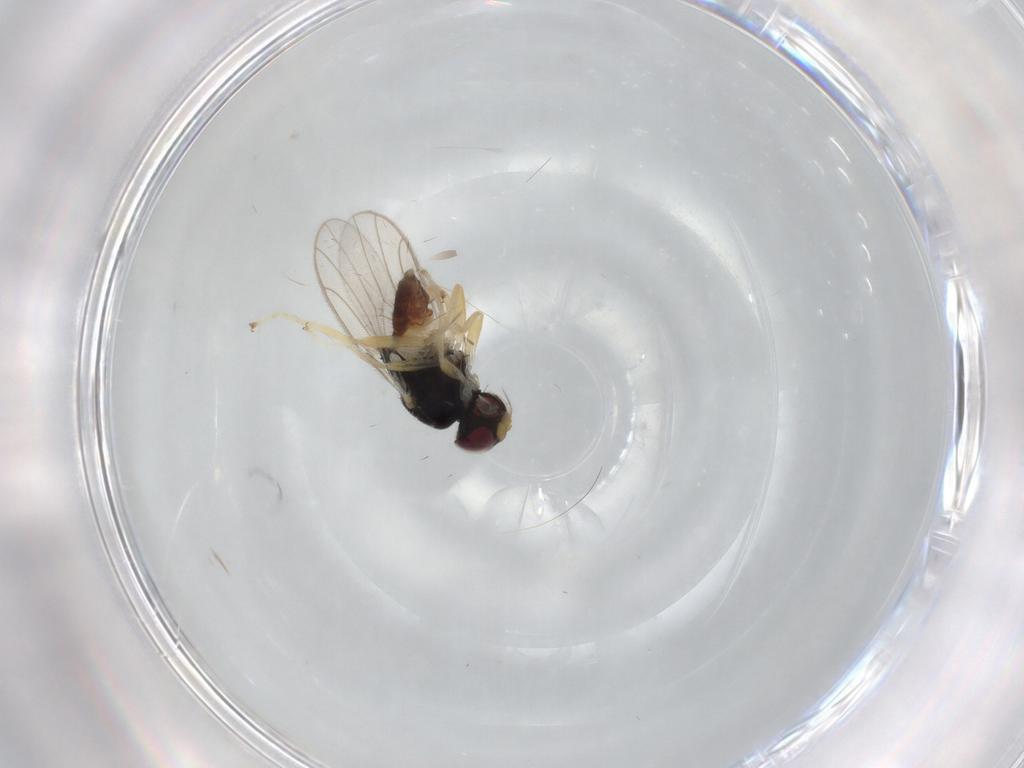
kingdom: Animalia
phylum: Arthropoda
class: Insecta
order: Diptera
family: Chloropidae
